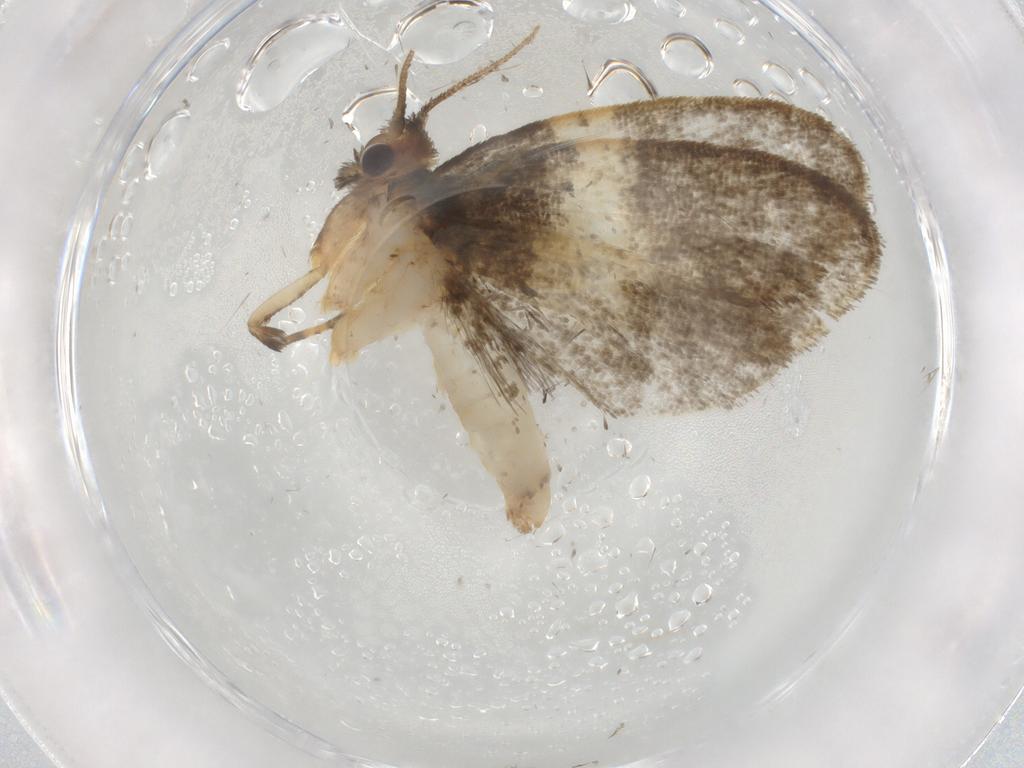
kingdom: Animalia
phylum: Arthropoda
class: Insecta
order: Lepidoptera
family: Psychidae
